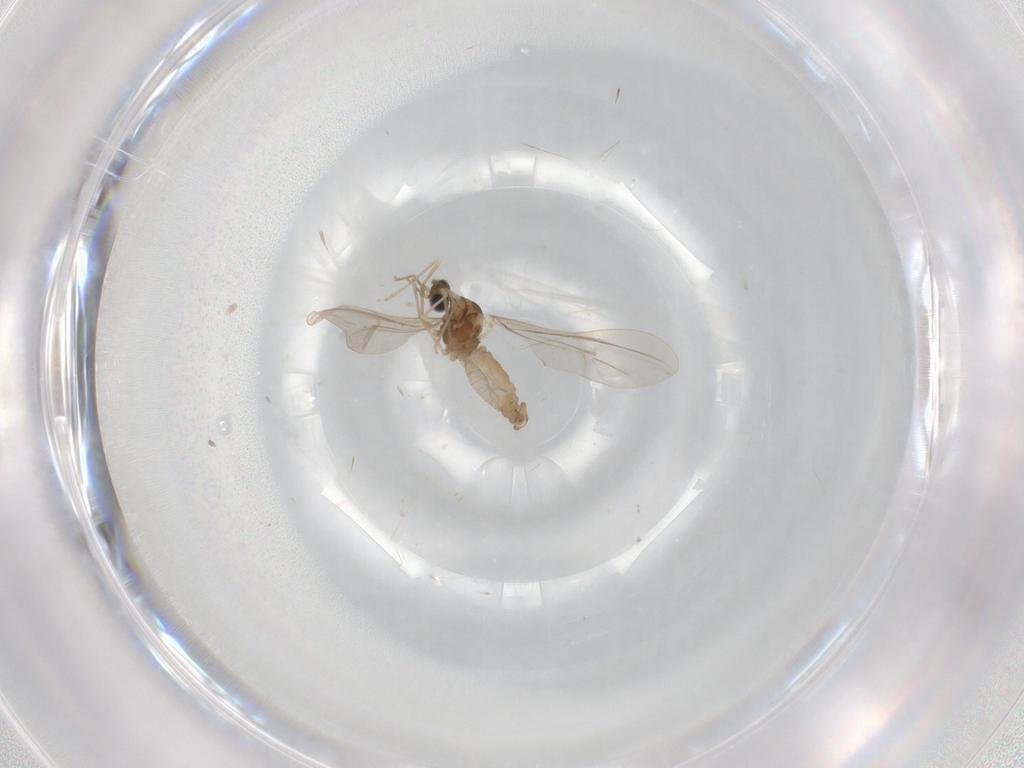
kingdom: Animalia
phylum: Arthropoda
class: Insecta
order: Diptera
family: Cecidomyiidae
